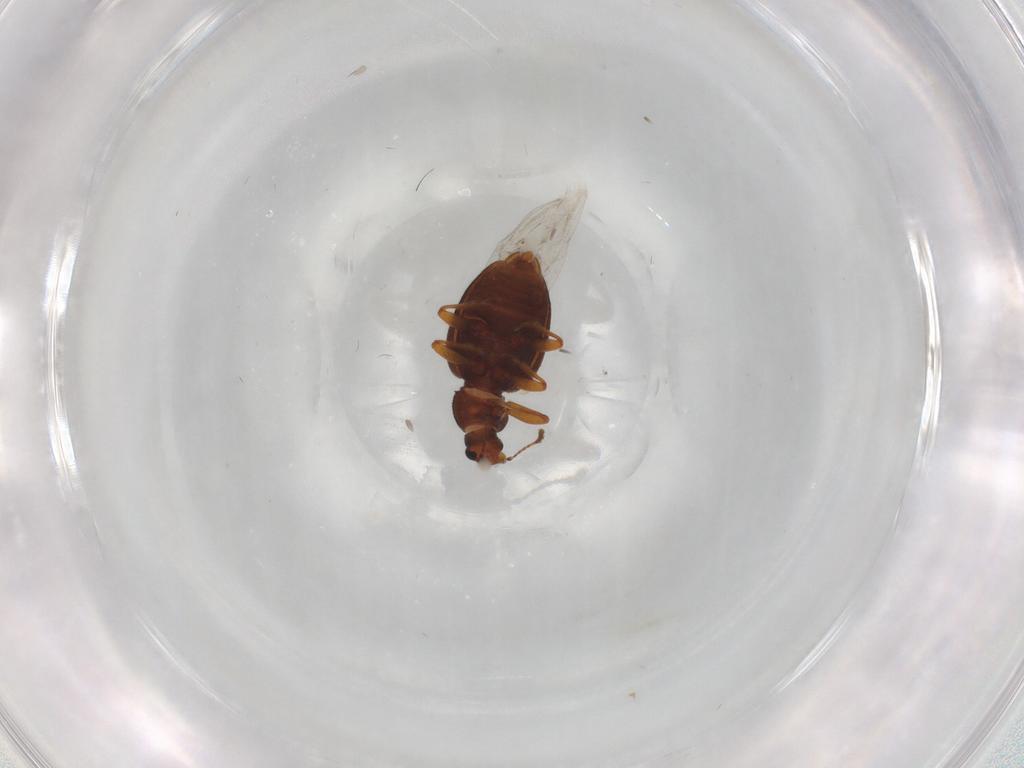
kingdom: Animalia
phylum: Arthropoda
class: Insecta
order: Coleoptera
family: Latridiidae
